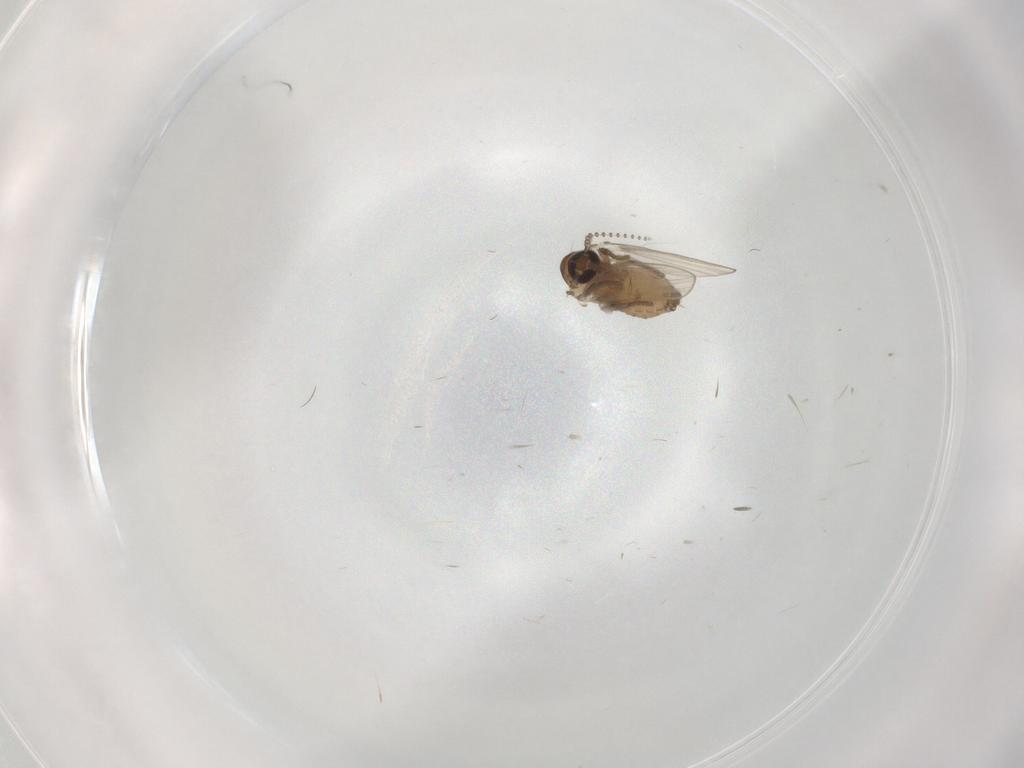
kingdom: Animalia
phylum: Arthropoda
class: Insecta
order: Diptera
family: Psychodidae
